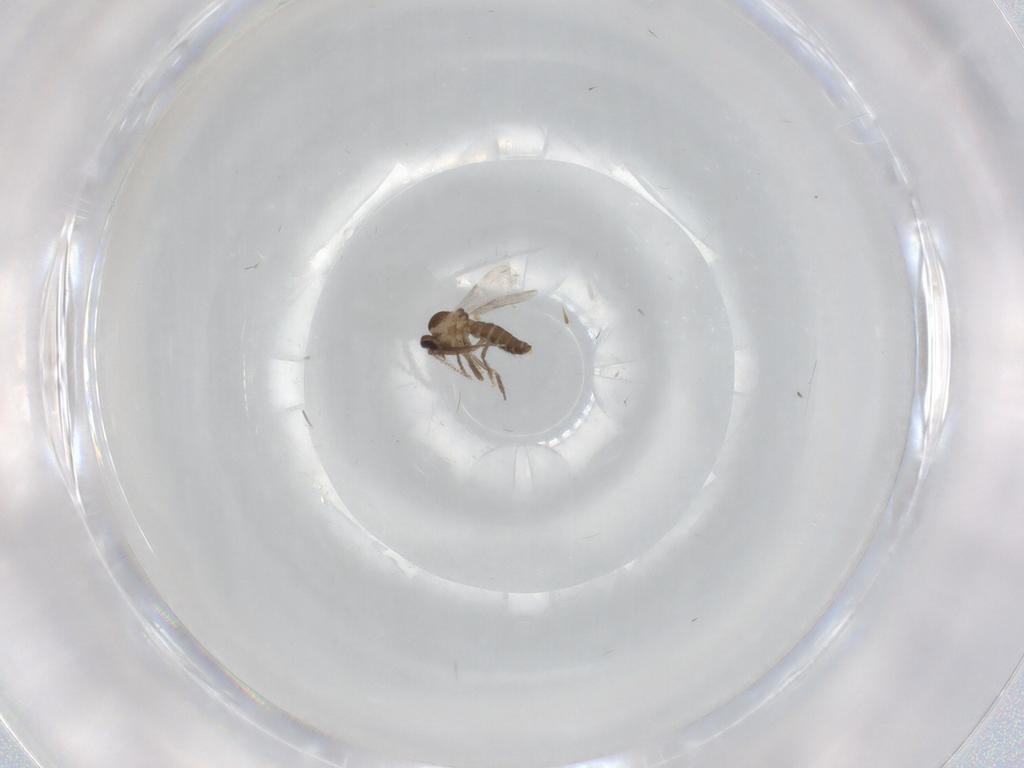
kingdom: Animalia
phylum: Arthropoda
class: Insecta
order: Diptera
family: Ceratopogonidae
